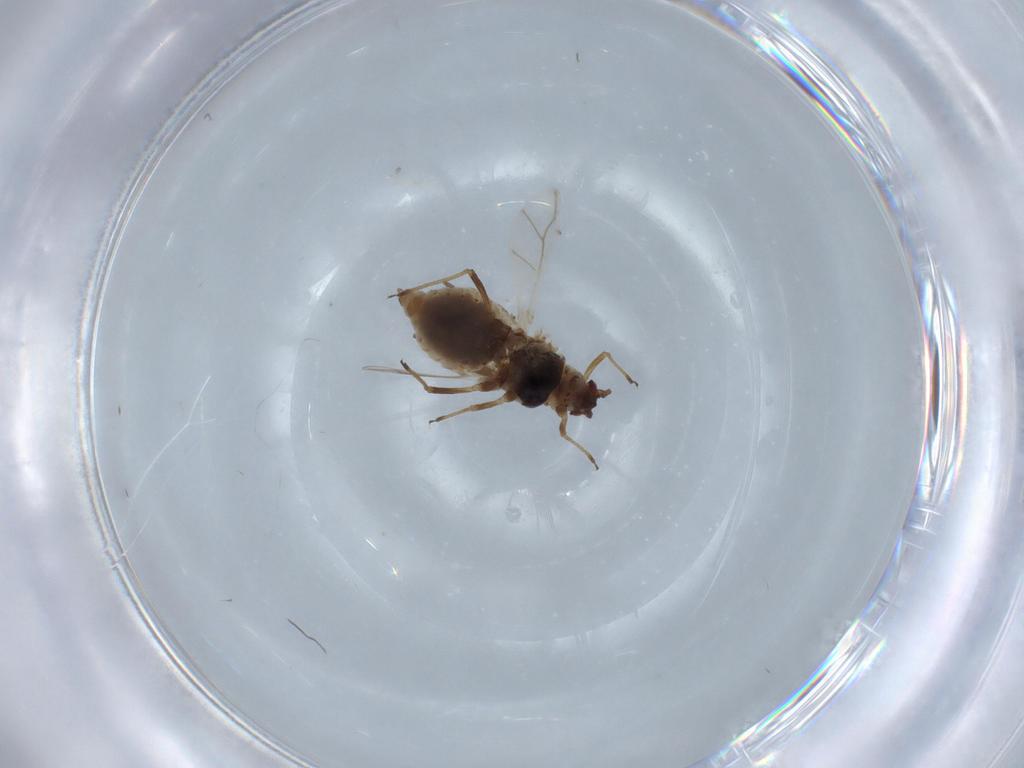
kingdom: Animalia
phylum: Arthropoda
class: Insecta
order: Hemiptera
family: Aphididae
